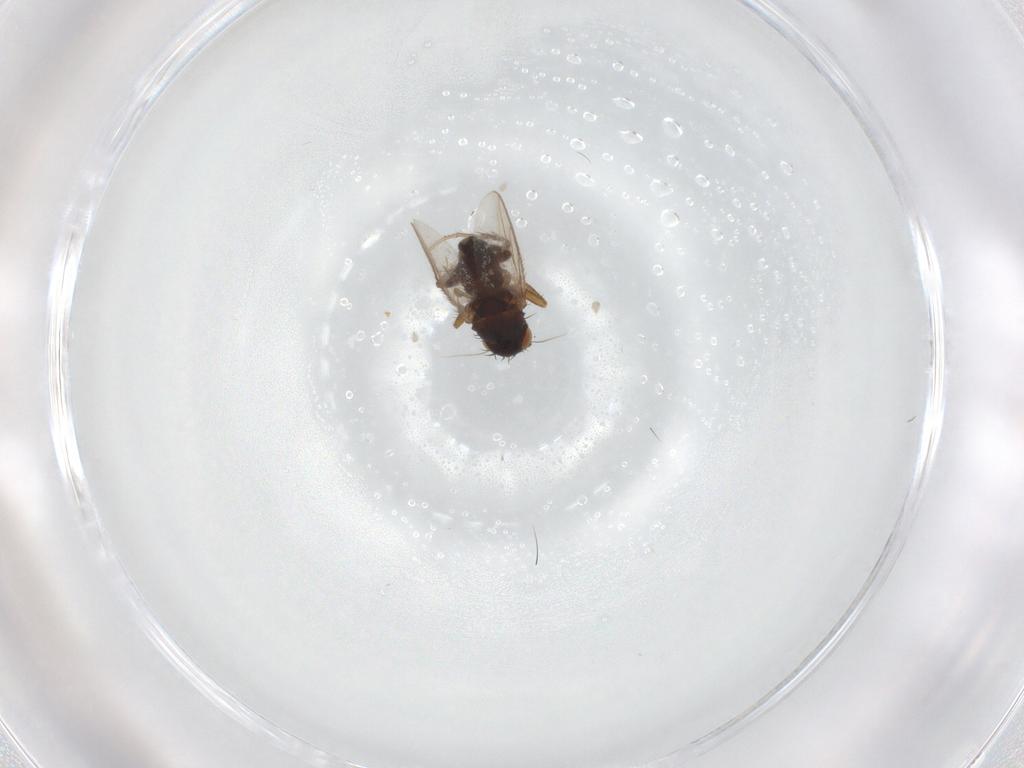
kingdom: Animalia
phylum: Arthropoda
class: Insecta
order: Diptera
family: Sphaeroceridae
